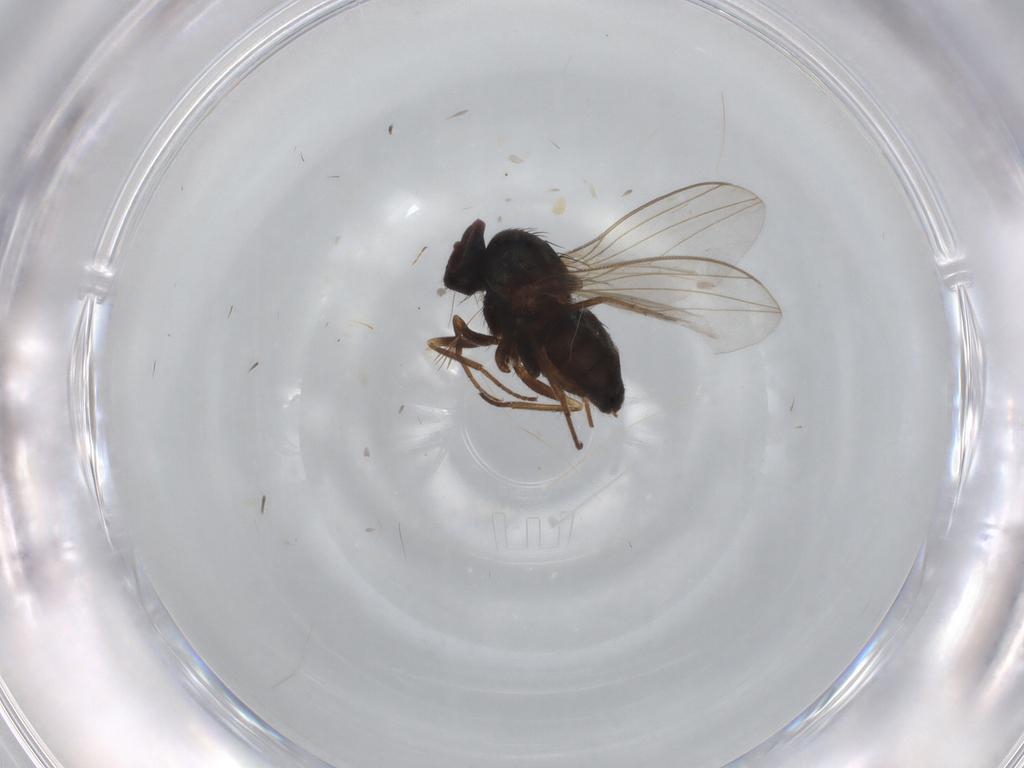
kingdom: Animalia
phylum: Arthropoda
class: Insecta
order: Diptera
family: Dolichopodidae
